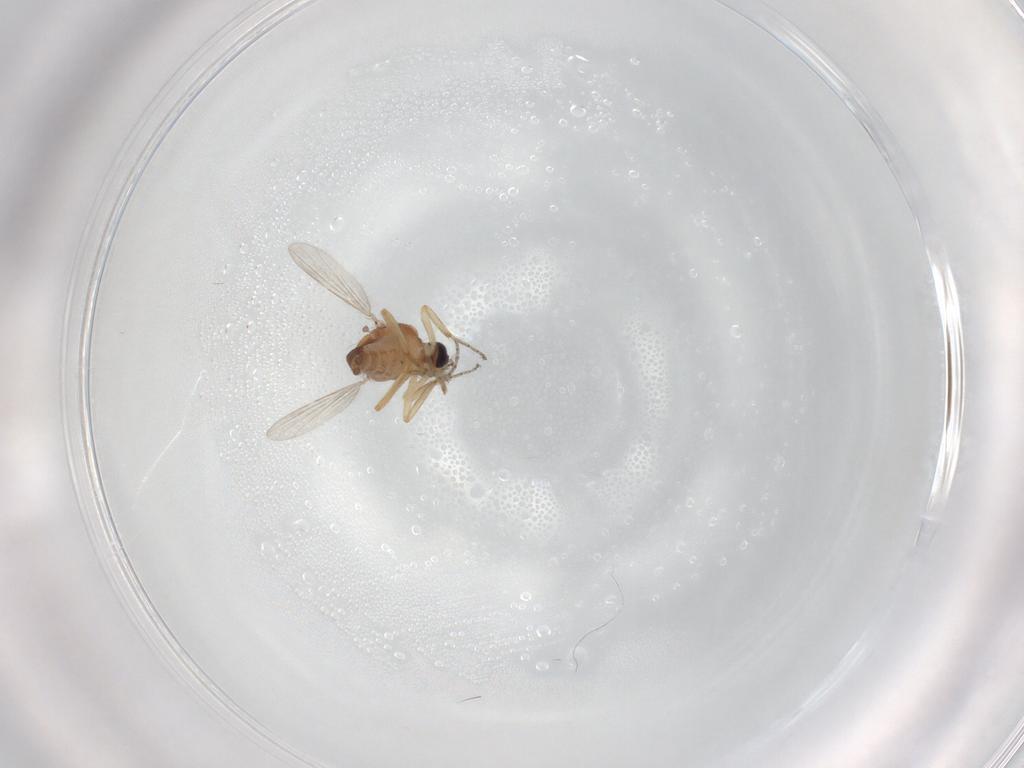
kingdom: Animalia
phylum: Arthropoda
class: Insecta
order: Diptera
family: Ceratopogonidae
